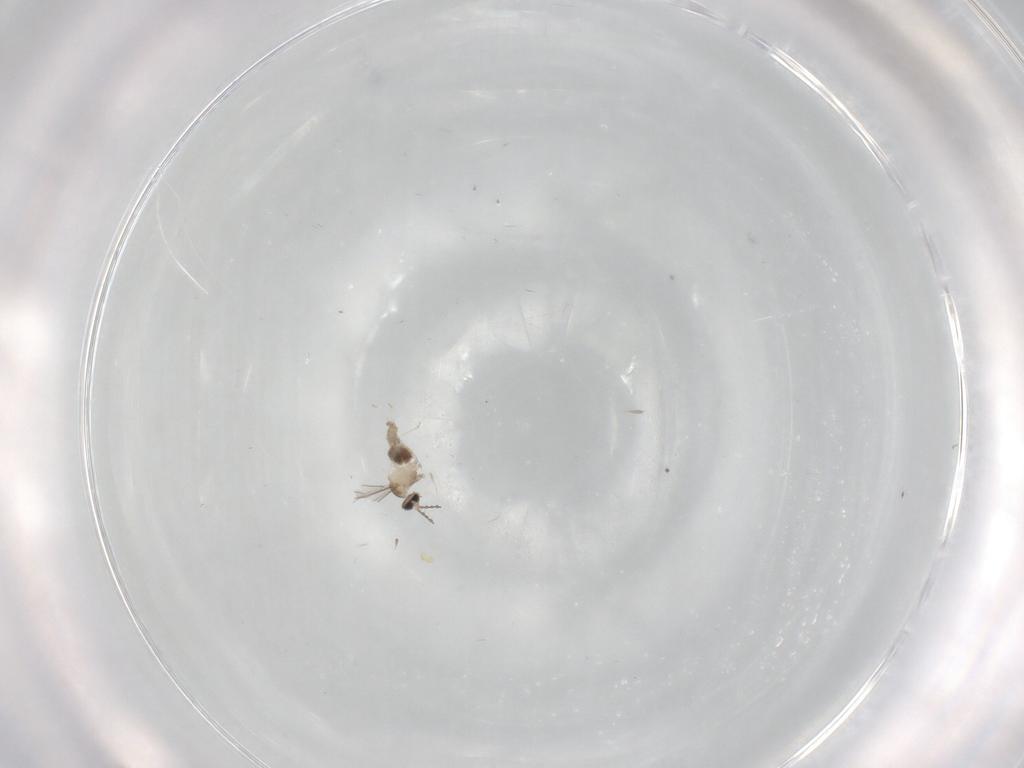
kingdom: Animalia
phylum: Arthropoda
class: Insecta
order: Diptera
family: Cecidomyiidae
